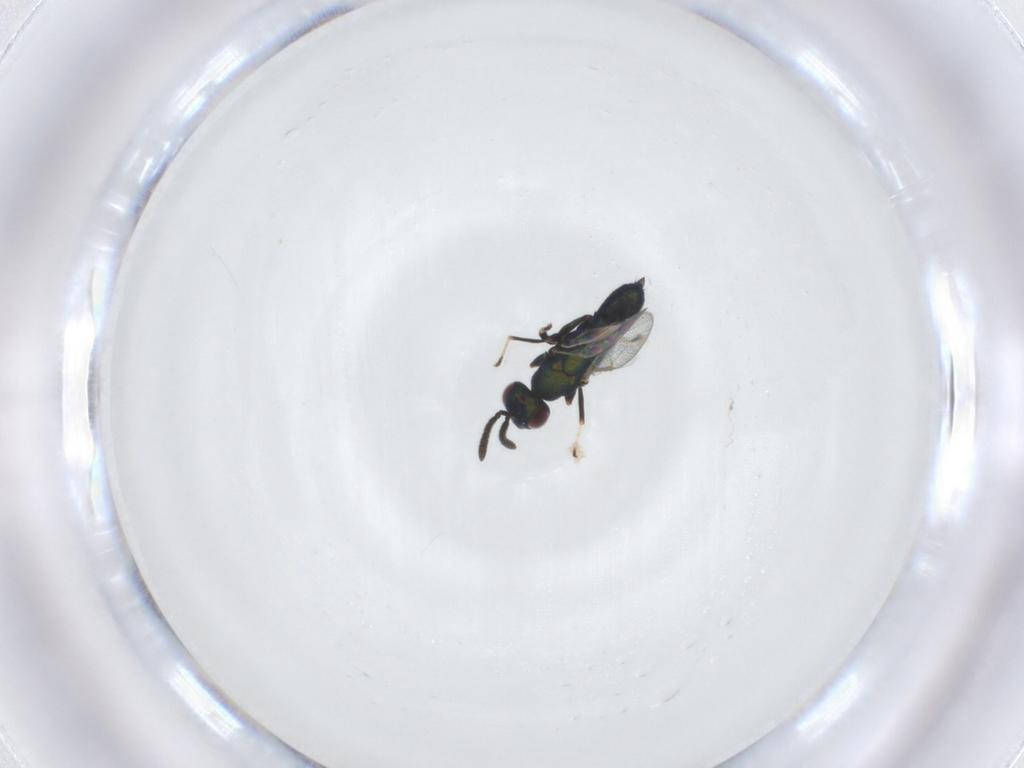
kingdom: Animalia
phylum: Arthropoda
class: Insecta
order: Hymenoptera
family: Torymidae
